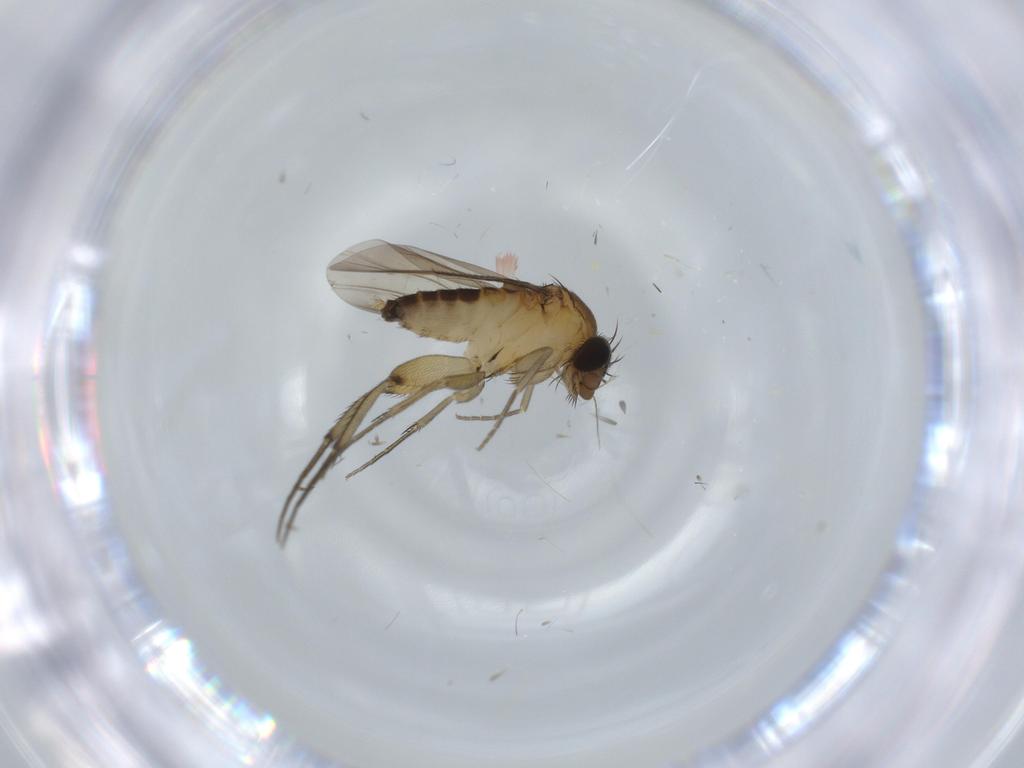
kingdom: Animalia
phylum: Arthropoda
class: Insecta
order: Diptera
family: Phoridae
